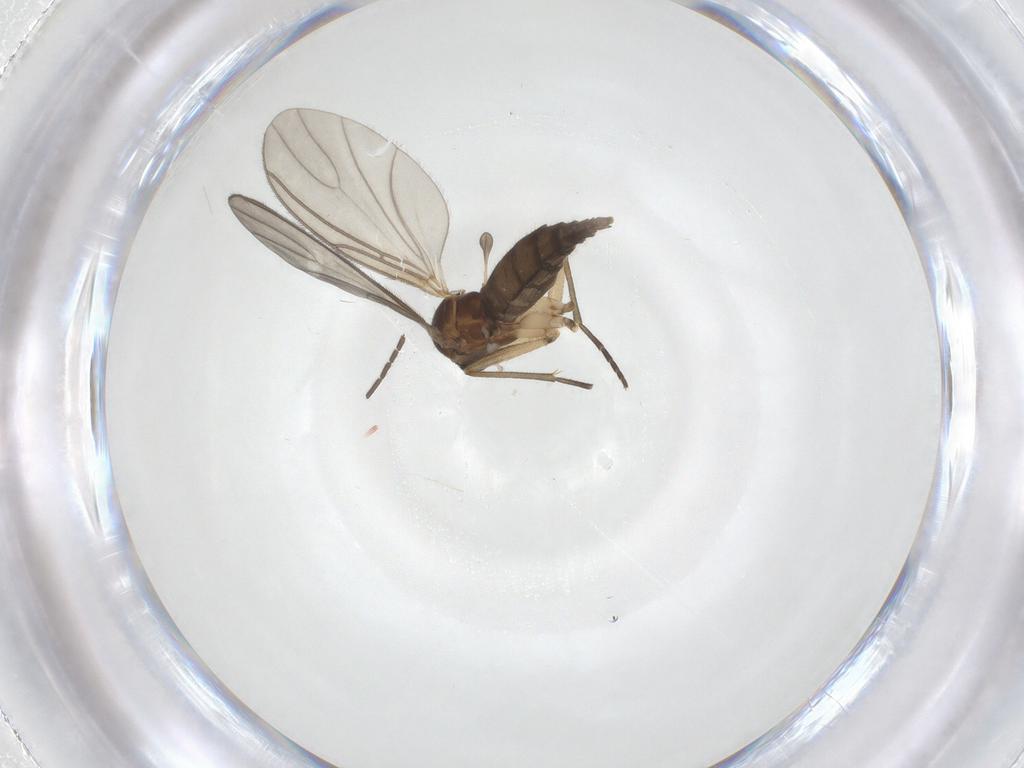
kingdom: Animalia
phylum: Arthropoda
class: Insecta
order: Diptera
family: Sciaridae
